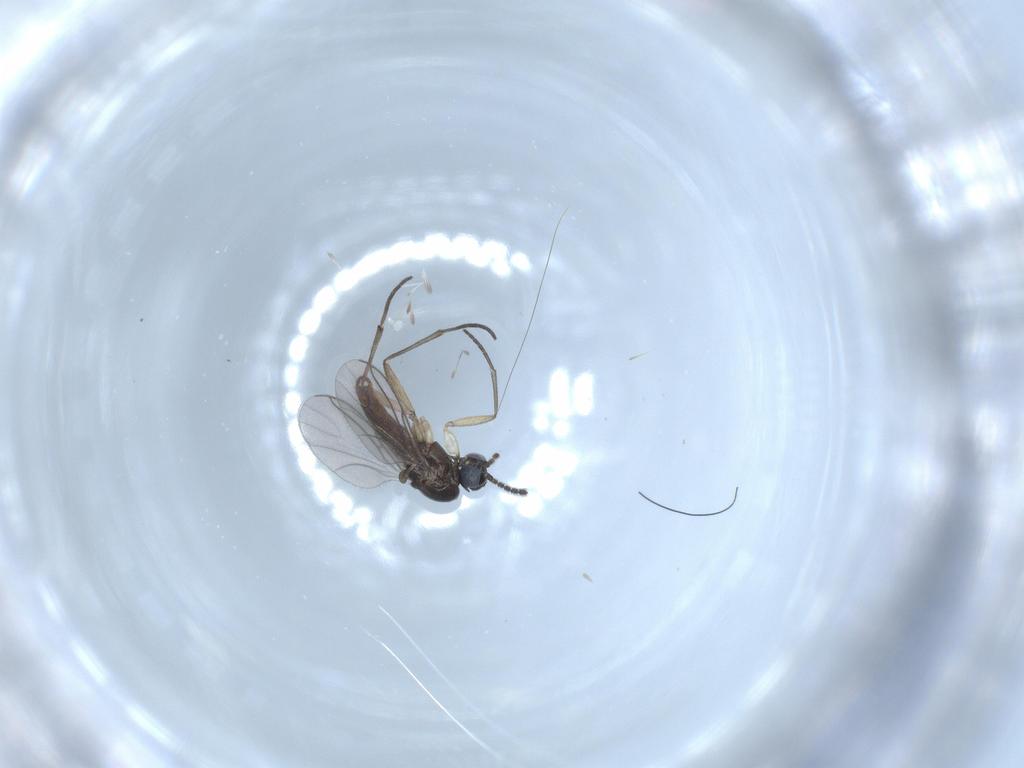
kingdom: Animalia
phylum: Arthropoda
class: Insecta
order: Diptera
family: Sciaridae
